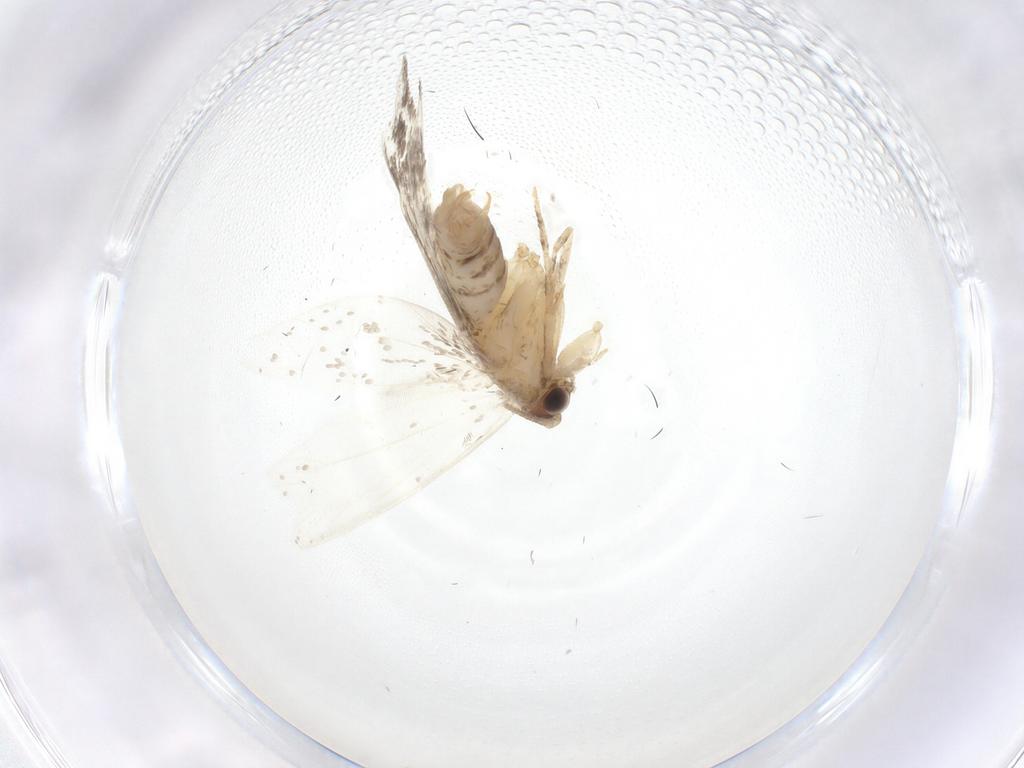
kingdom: Animalia
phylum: Arthropoda
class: Insecta
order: Lepidoptera
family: Dryadaulidae
